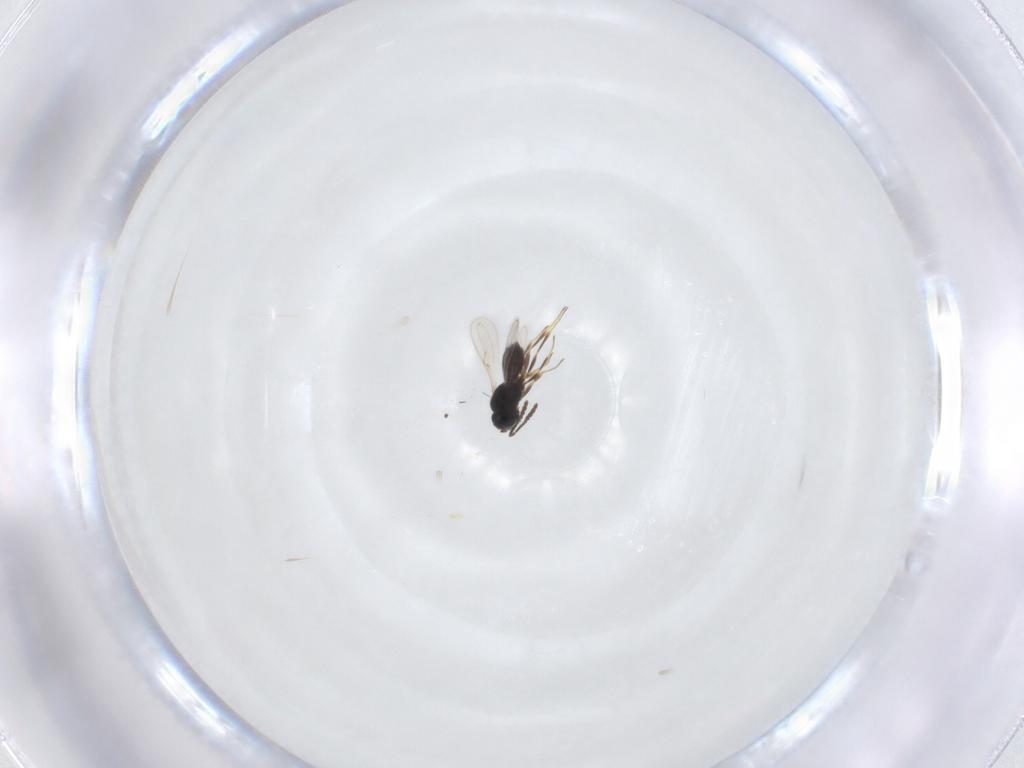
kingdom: Animalia
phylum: Arthropoda
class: Insecta
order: Hymenoptera
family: Scelionidae
